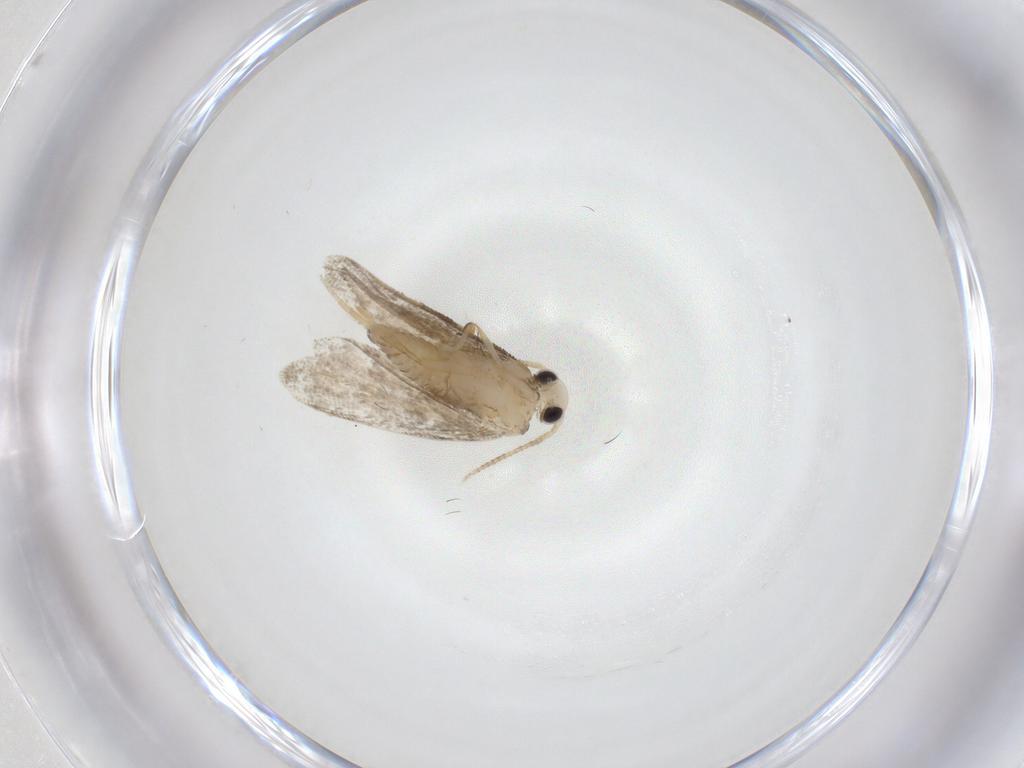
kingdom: Animalia
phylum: Arthropoda
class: Insecta
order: Lepidoptera
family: Psychidae
